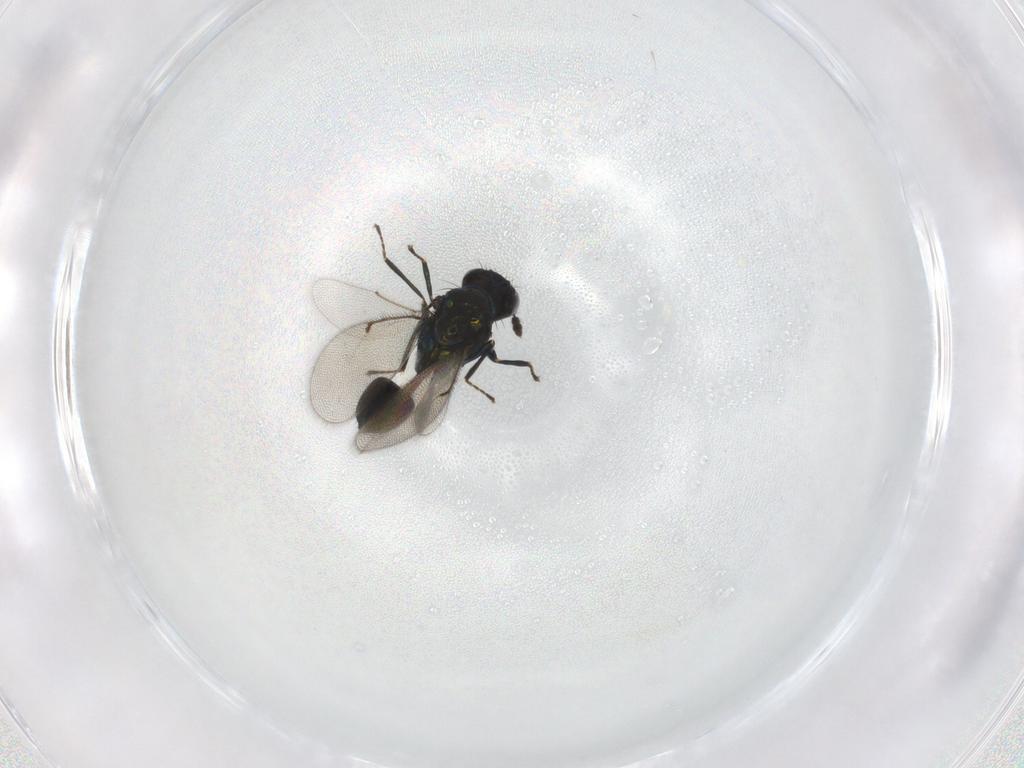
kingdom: Animalia
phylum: Arthropoda
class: Insecta
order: Hymenoptera
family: Eulophidae
